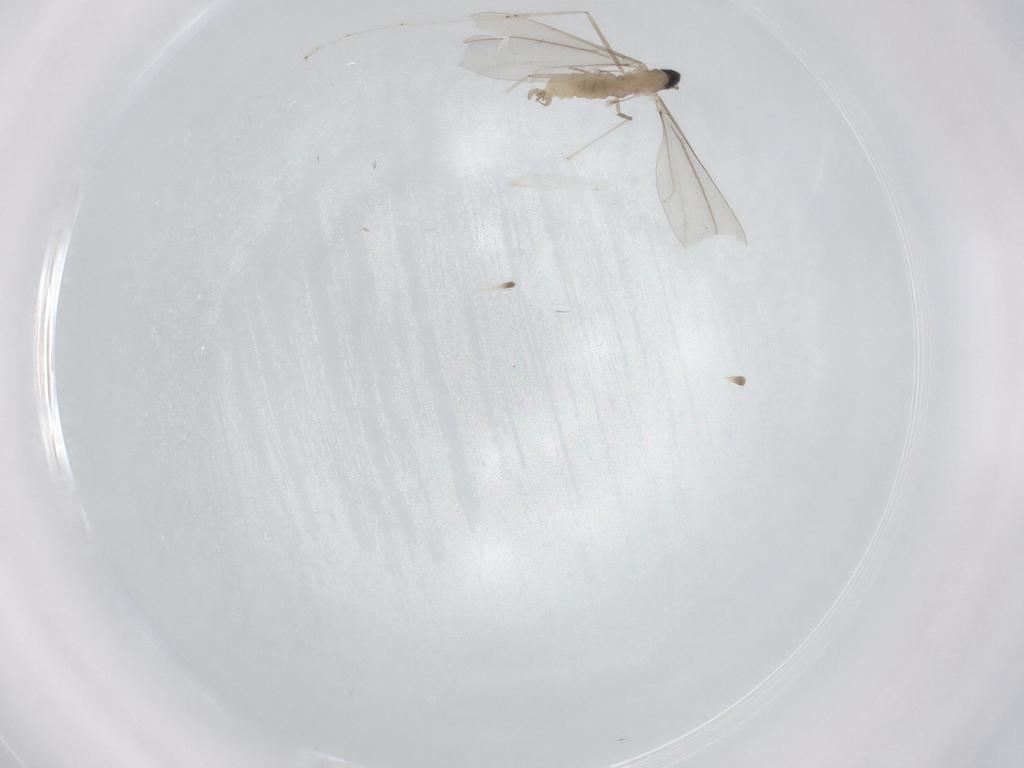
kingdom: Animalia
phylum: Arthropoda
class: Insecta
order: Diptera
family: Cecidomyiidae
